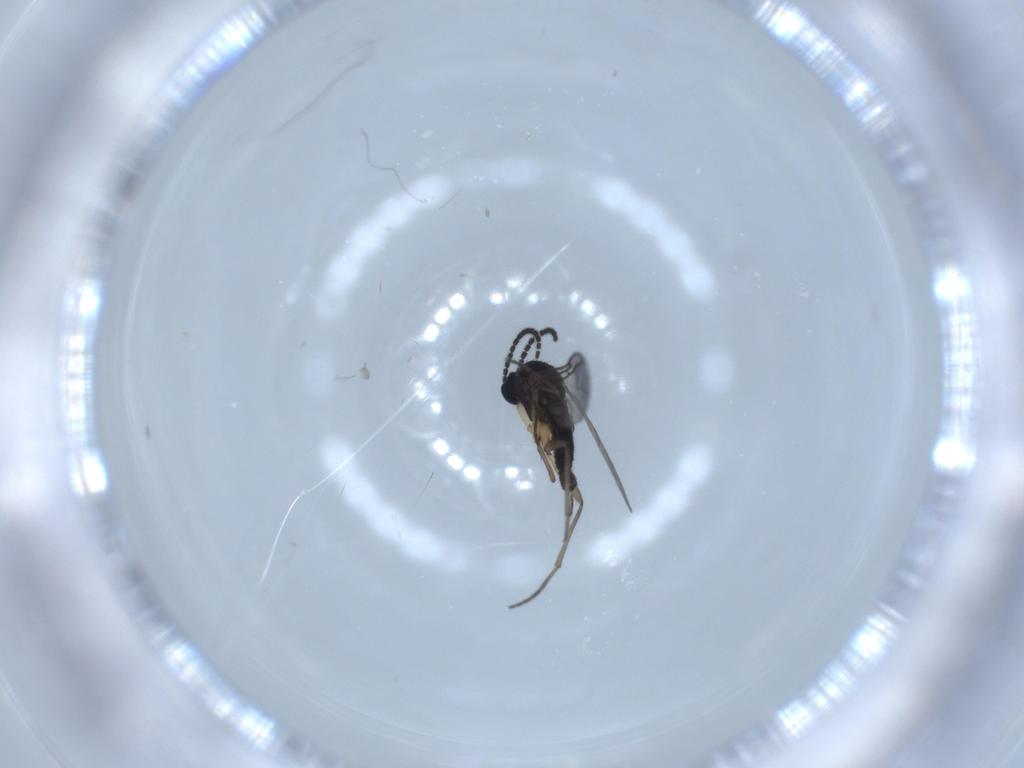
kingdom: Animalia
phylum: Arthropoda
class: Insecta
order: Diptera
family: Sciaridae
